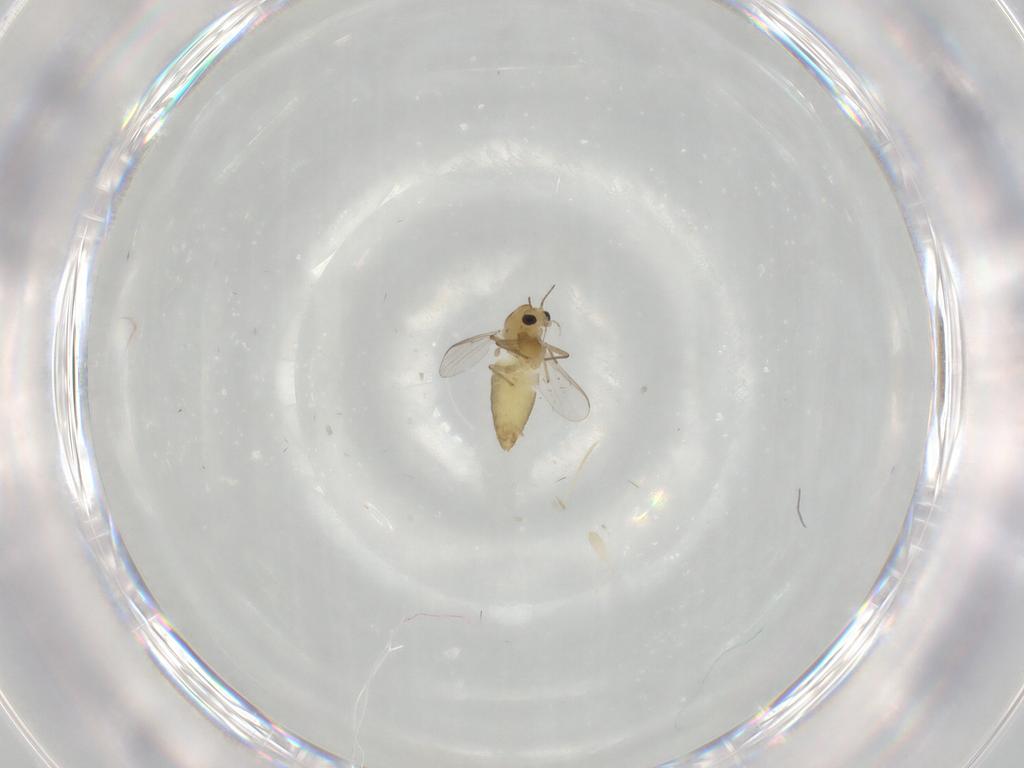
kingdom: Animalia
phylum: Arthropoda
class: Insecta
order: Diptera
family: Chironomidae
